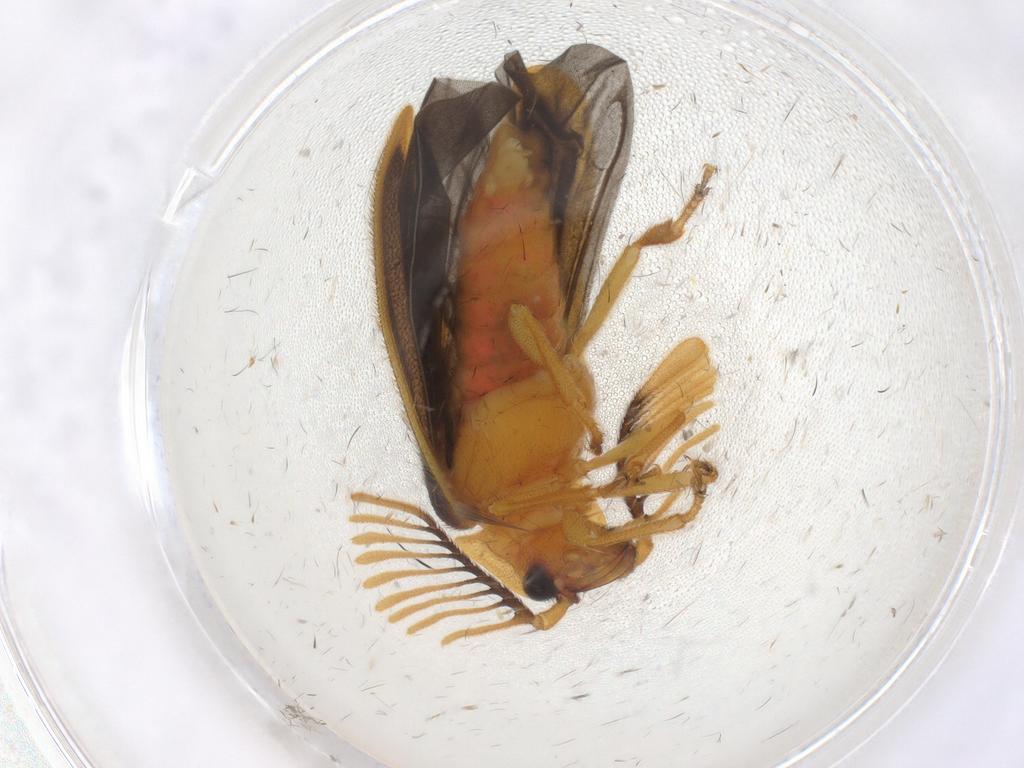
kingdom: Animalia
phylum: Arthropoda
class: Insecta
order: Coleoptera
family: Lampyridae
